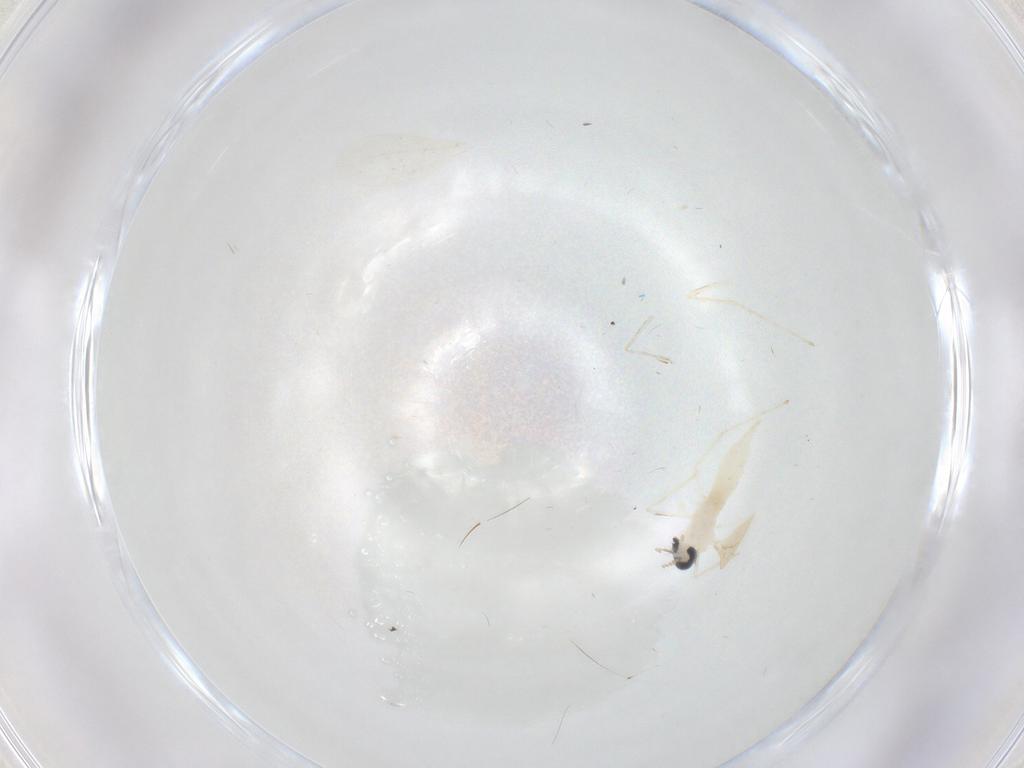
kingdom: Animalia
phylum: Arthropoda
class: Insecta
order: Diptera
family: Cecidomyiidae
